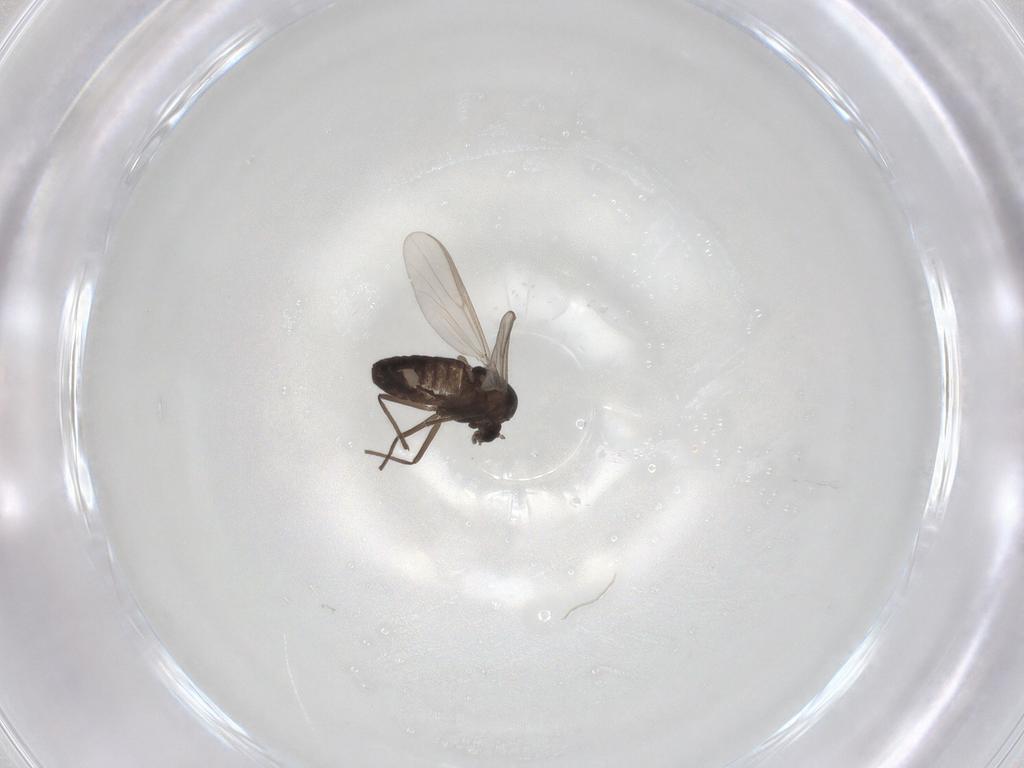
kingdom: Animalia
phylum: Arthropoda
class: Insecta
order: Diptera
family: Chironomidae
